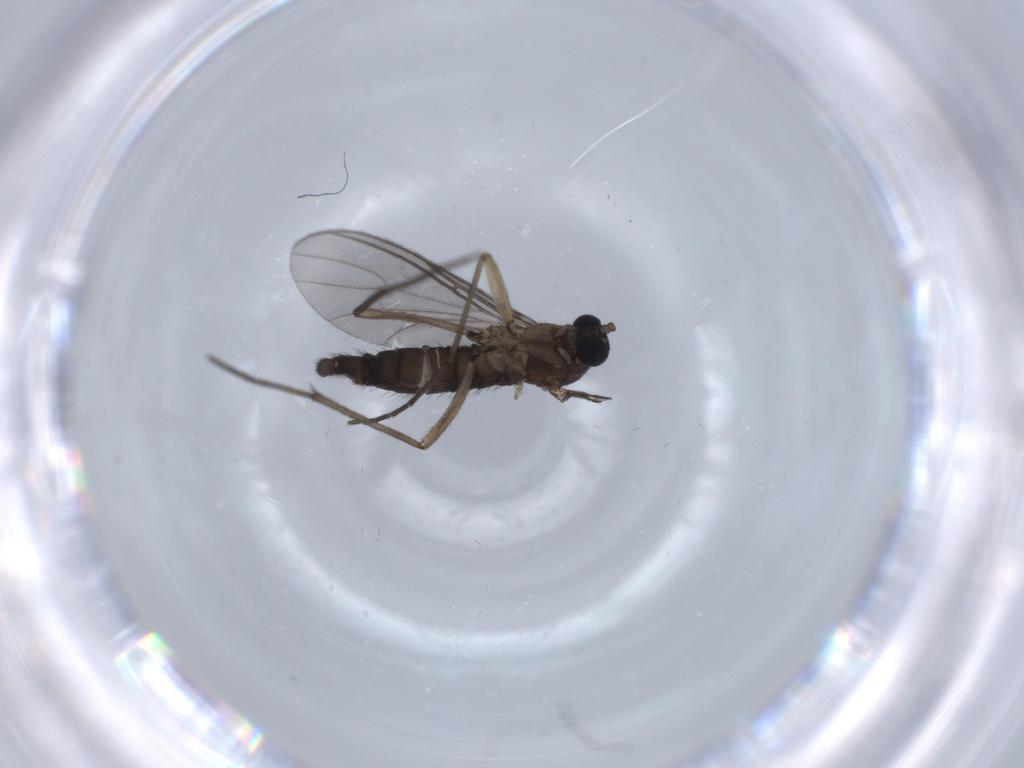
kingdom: Animalia
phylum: Arthropoda
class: Insecta
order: Diptera
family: Sciaridae
